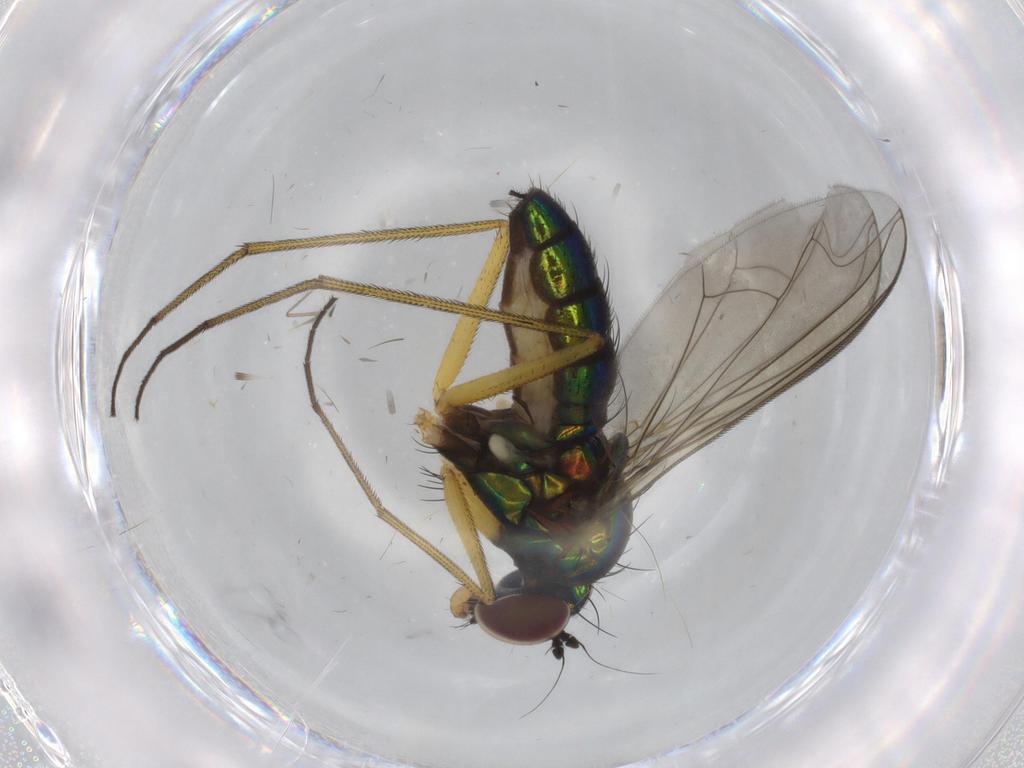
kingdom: Animalia
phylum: Arthropoda
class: Insecta
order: Diptera
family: Dolichopodidae
